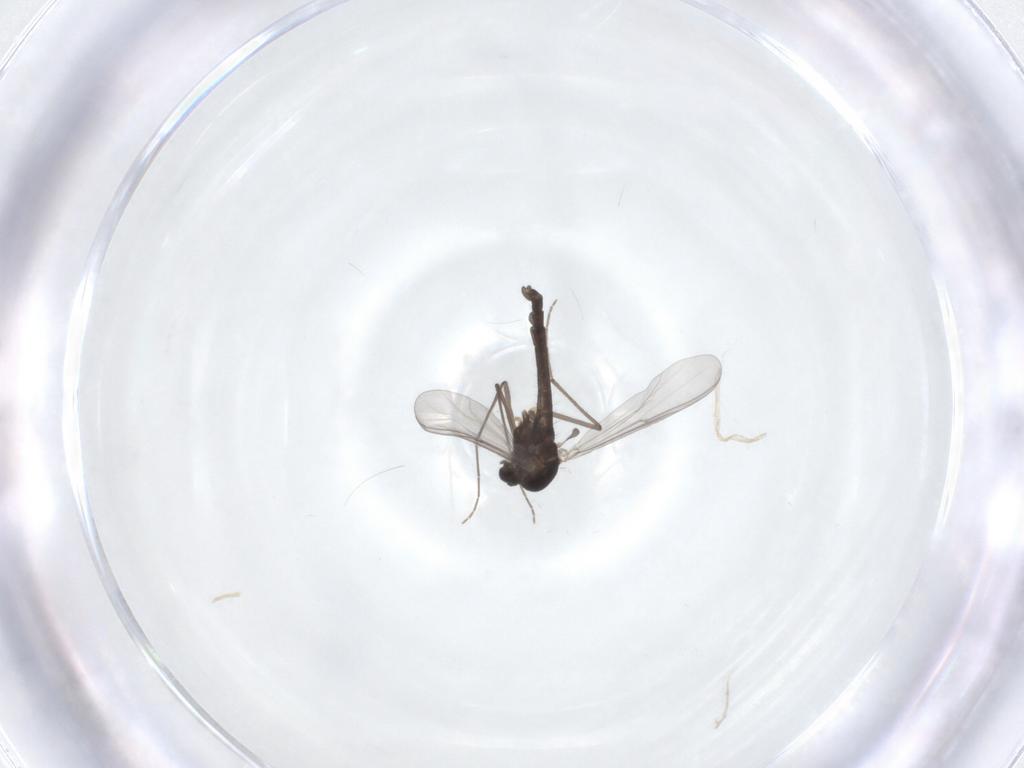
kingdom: Animalia
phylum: Arthropoda
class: Insecta
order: Diptera
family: Chironomidae
